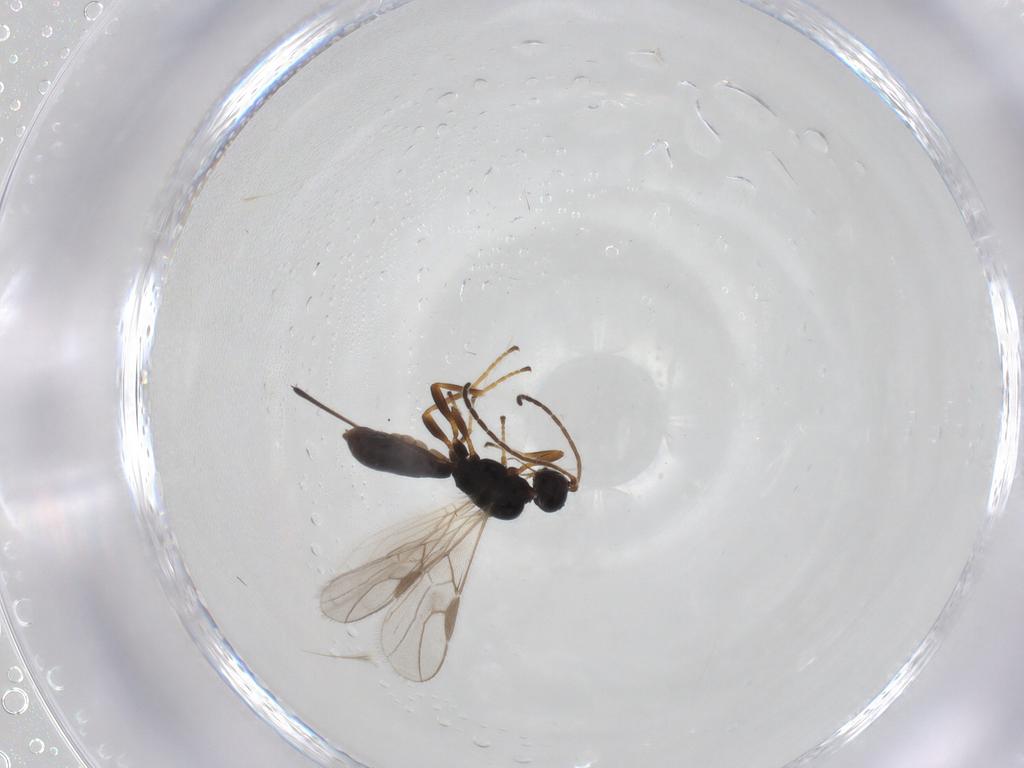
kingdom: Animalia
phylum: Arthropoda
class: Insecta
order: Hymenoptera
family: Braconidae
